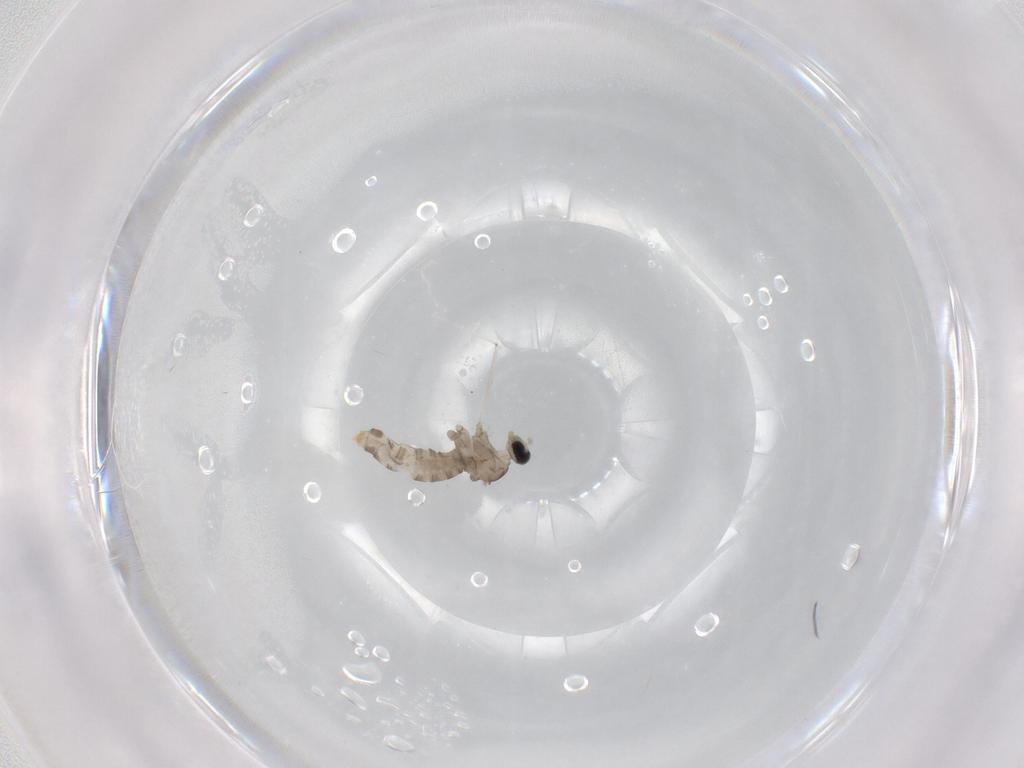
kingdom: Animalia
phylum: Arthropoda
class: Insecta
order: Diptera
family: Cecidomyiidae
